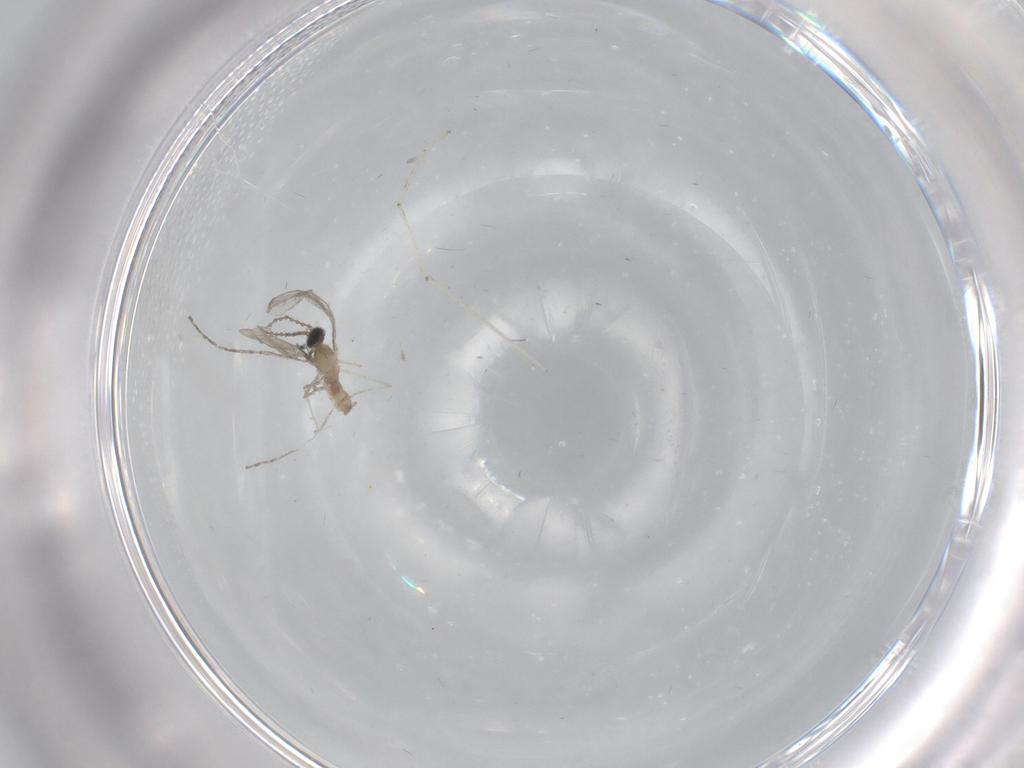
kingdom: Animalia
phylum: Arthropoda
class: Insecta
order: Diptera
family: Cecidomyiidae
